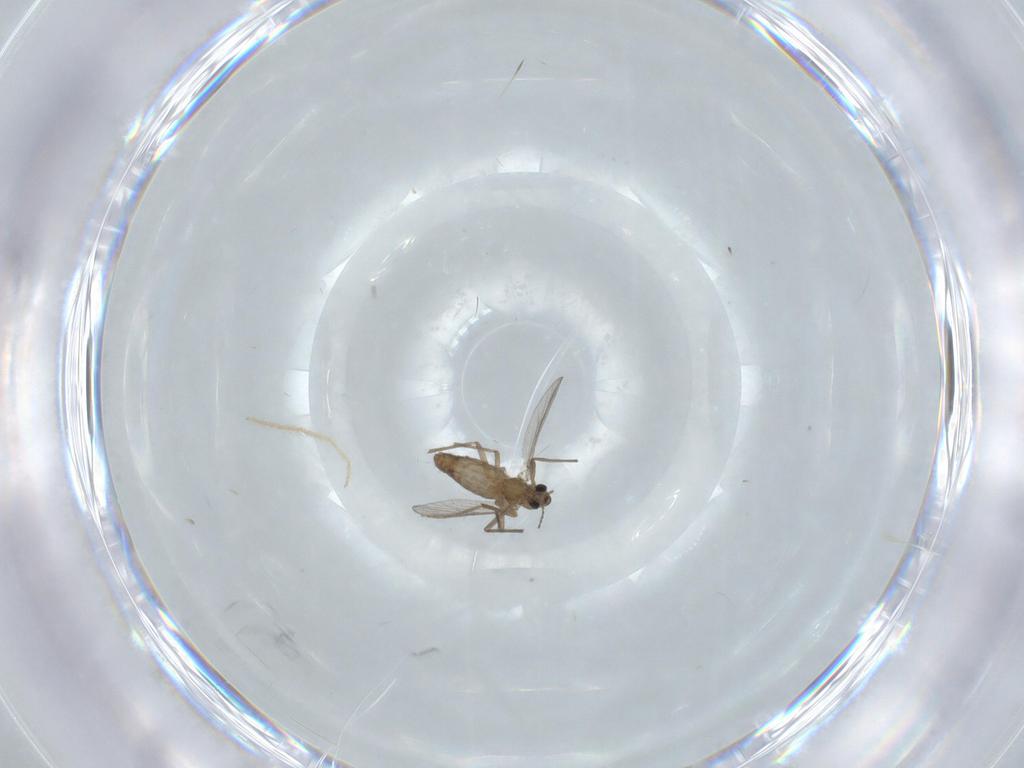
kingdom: Animalia
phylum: Arthropoda
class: Insecta
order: Diptera
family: Chironomidae
